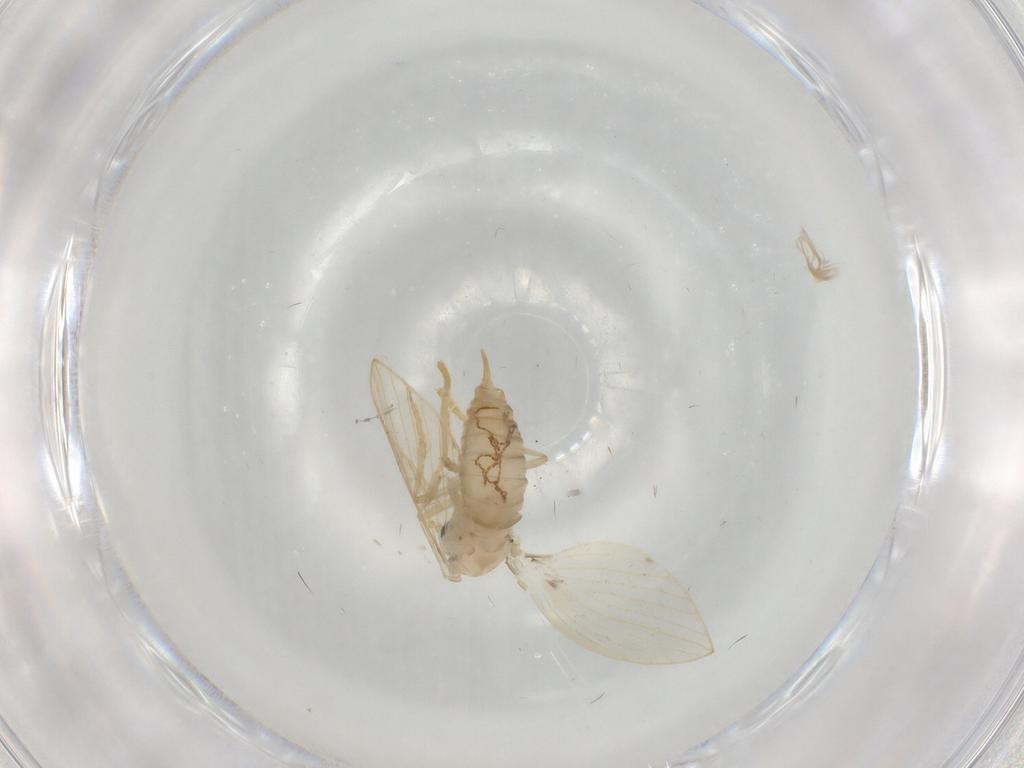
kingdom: Animalia
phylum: Arthropoda
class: Insecta
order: Diptera
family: Psychodidae
